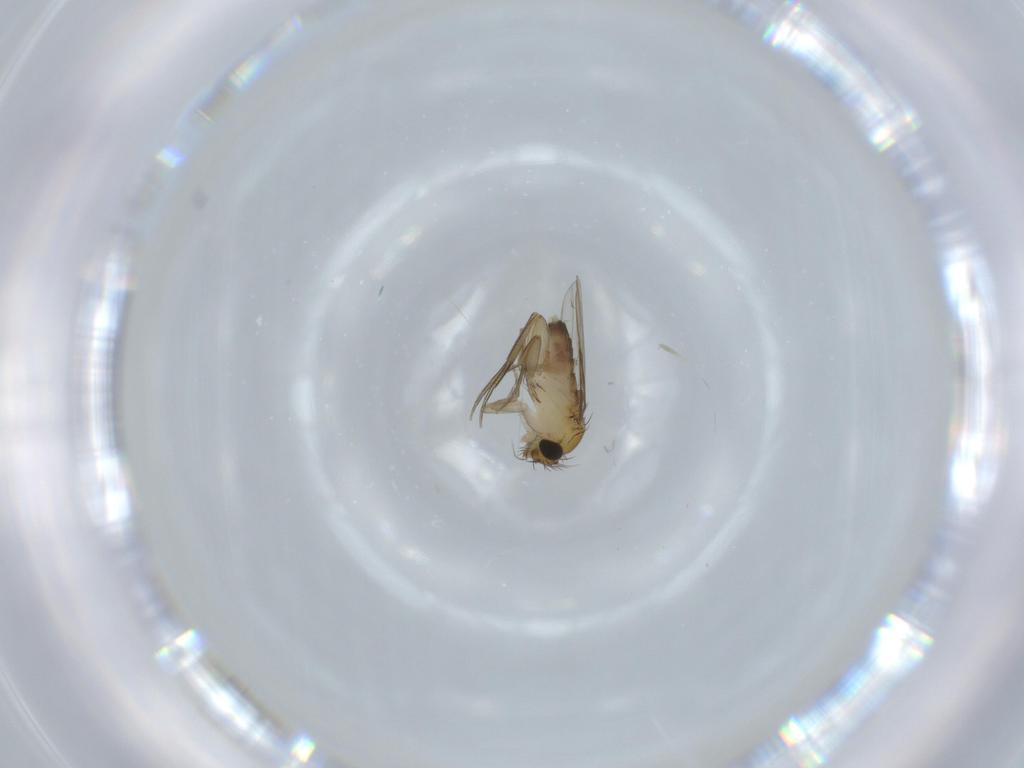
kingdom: Animalia
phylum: Arthropoda
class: Insecta
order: Diptera
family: Phoridae
